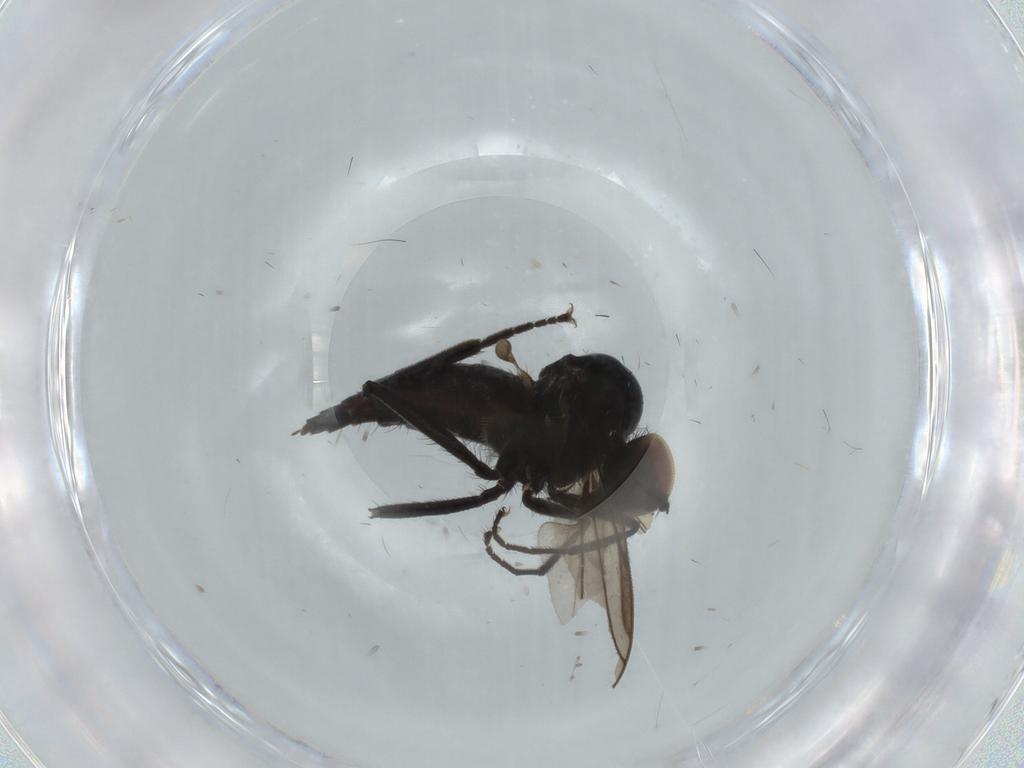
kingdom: Animalia
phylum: Arthropoda
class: Insecta
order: Diptera
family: Hybotidae
